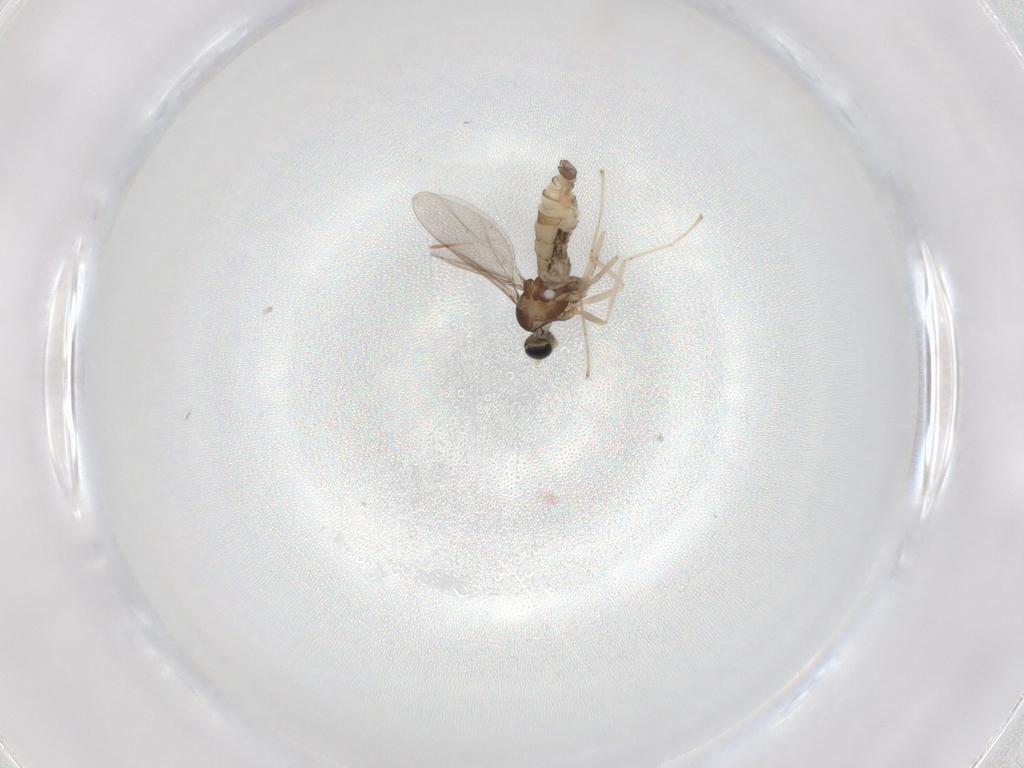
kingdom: Animalia
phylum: Arthropoda
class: Insecta
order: Diptera
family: Cecidomyiidae
